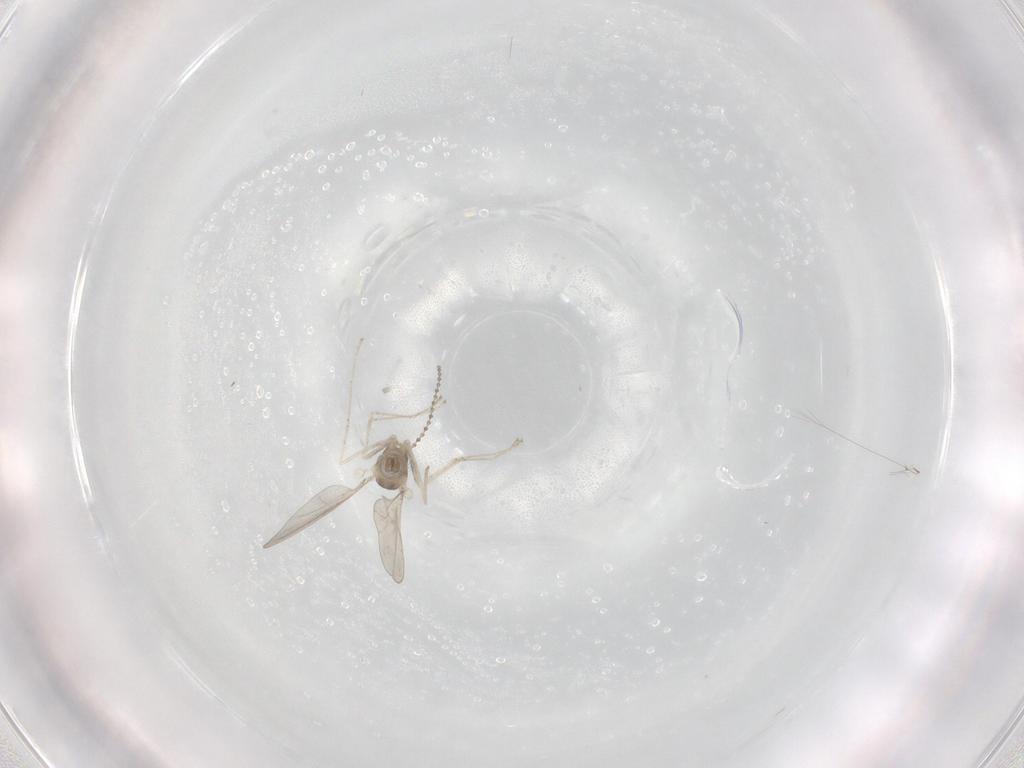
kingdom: Animalia
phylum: Arthropoda
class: Insecta
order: Diptera
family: Cecidomyiidae
